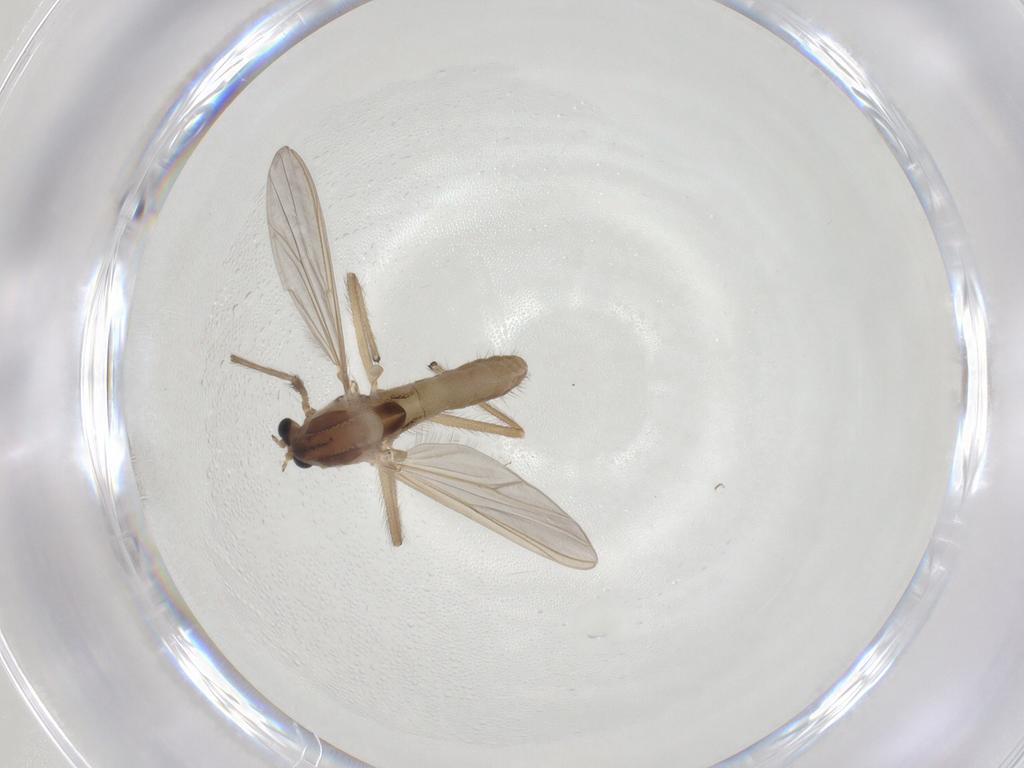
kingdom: Animalia
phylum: Arthropoda
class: Insecta
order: Diptera
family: Chironomidae
